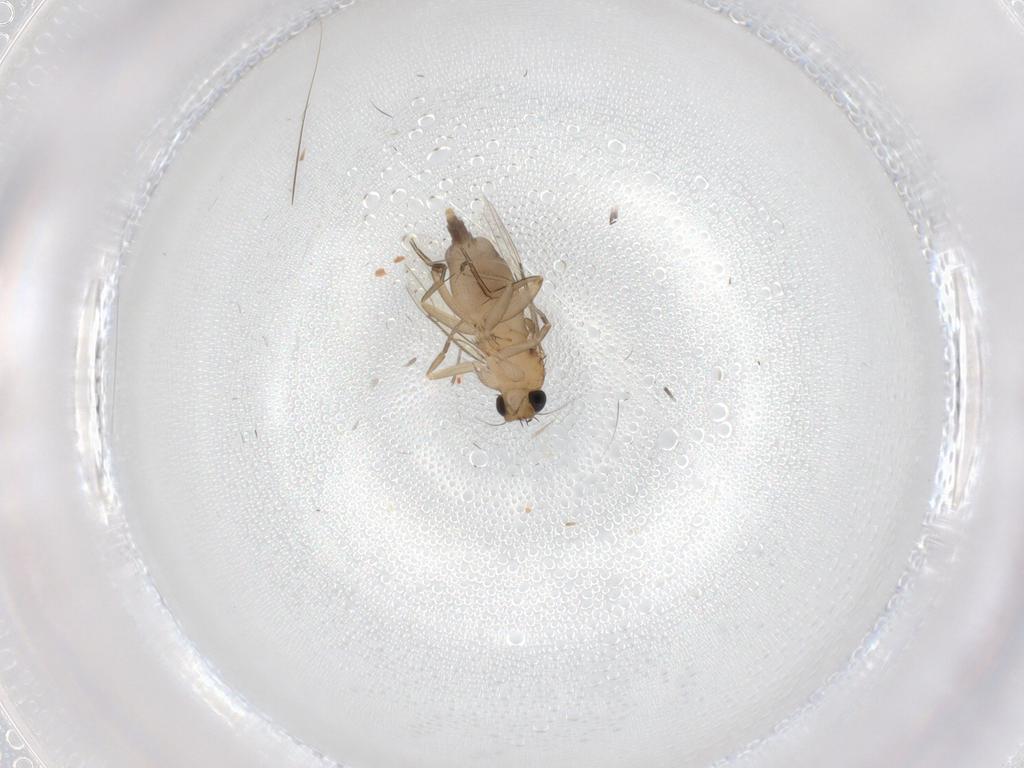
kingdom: Animalia
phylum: Arthropoda
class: Insecta
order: Diptera
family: Phoridae
